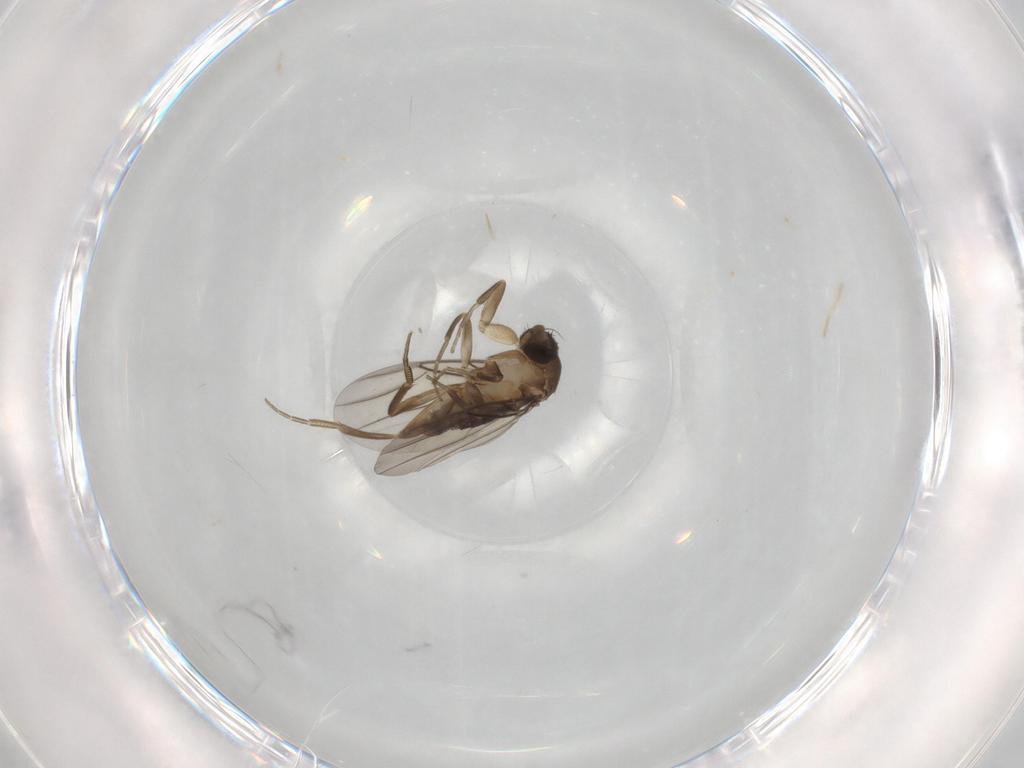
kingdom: Animalia
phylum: Arthropoda
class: Insecta
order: Diptera
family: Phoridae
